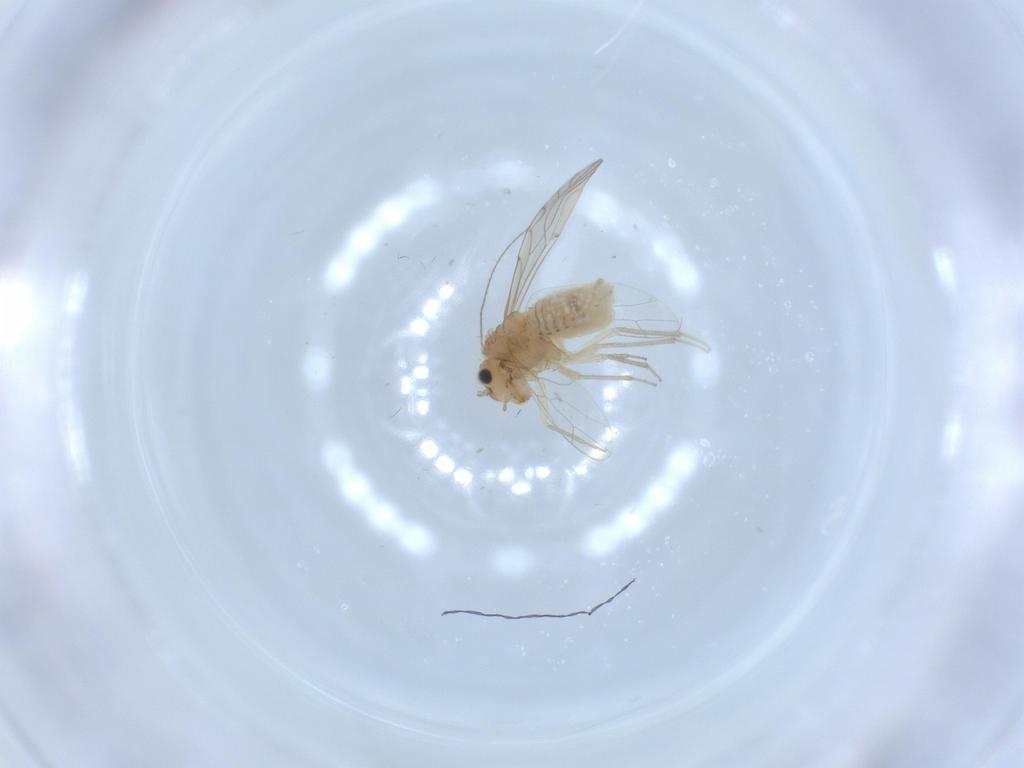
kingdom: Animalia
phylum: Arthropoda
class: Insecta
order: Psocodea
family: Lachesillidae
